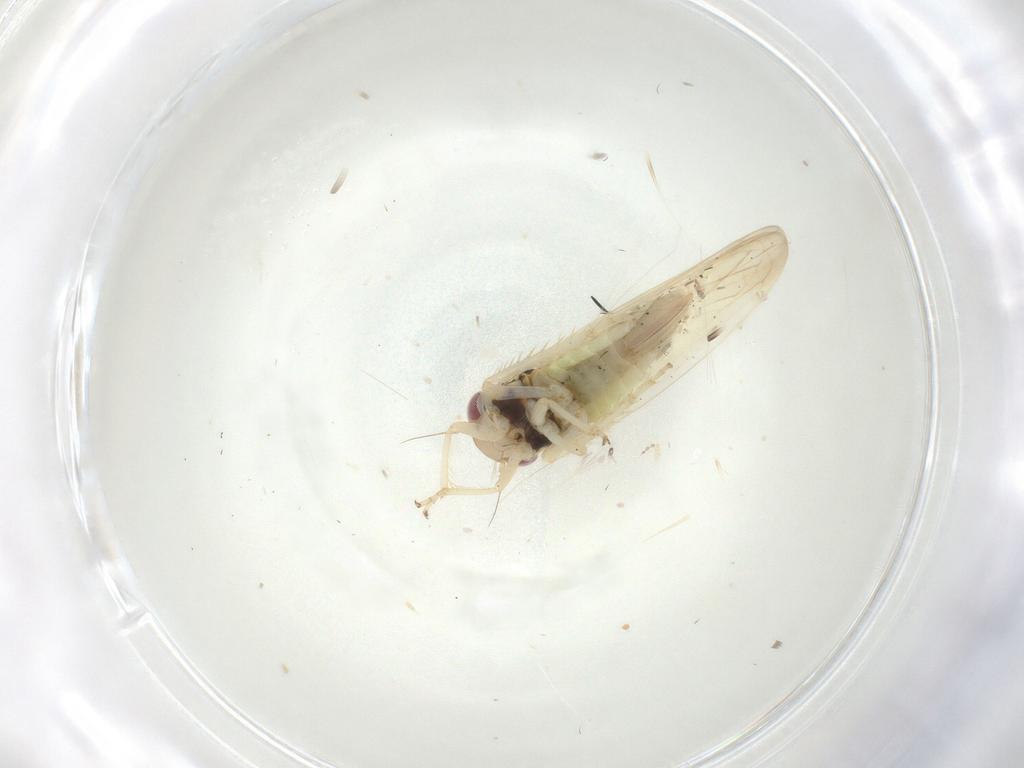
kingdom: Animalia
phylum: Arthropoda
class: Insecta
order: Hemiptera
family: Cicadellidae
